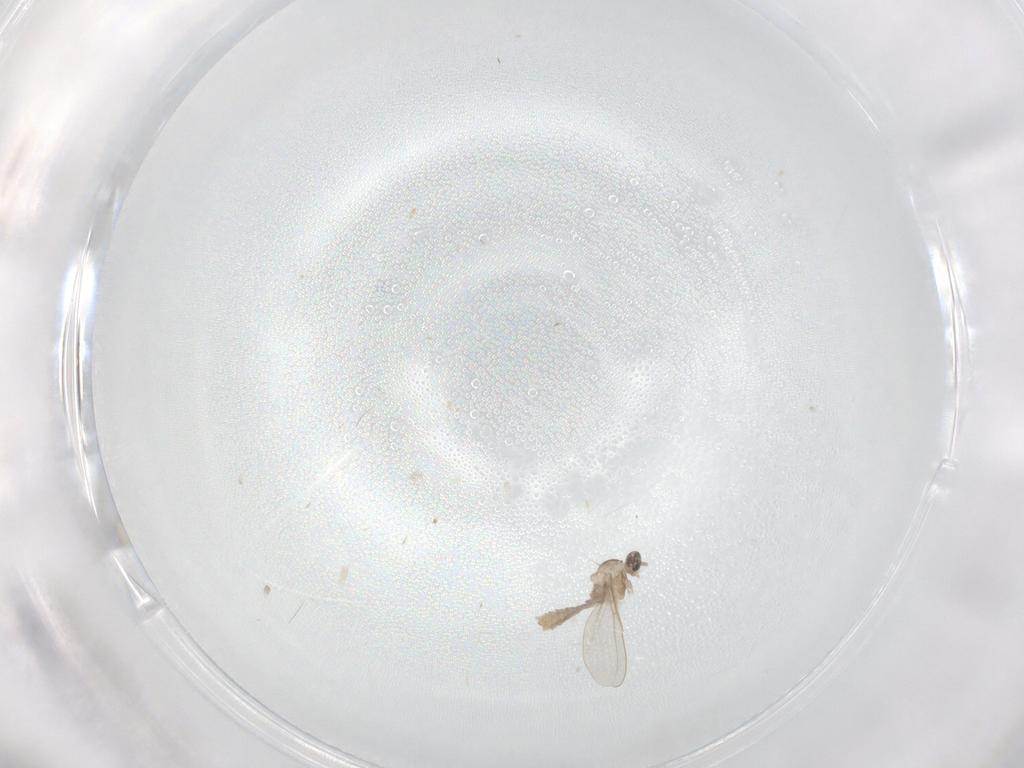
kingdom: Animalia
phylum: Arthropoda
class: Insecta
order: Diptera
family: Cecidomyiidae
